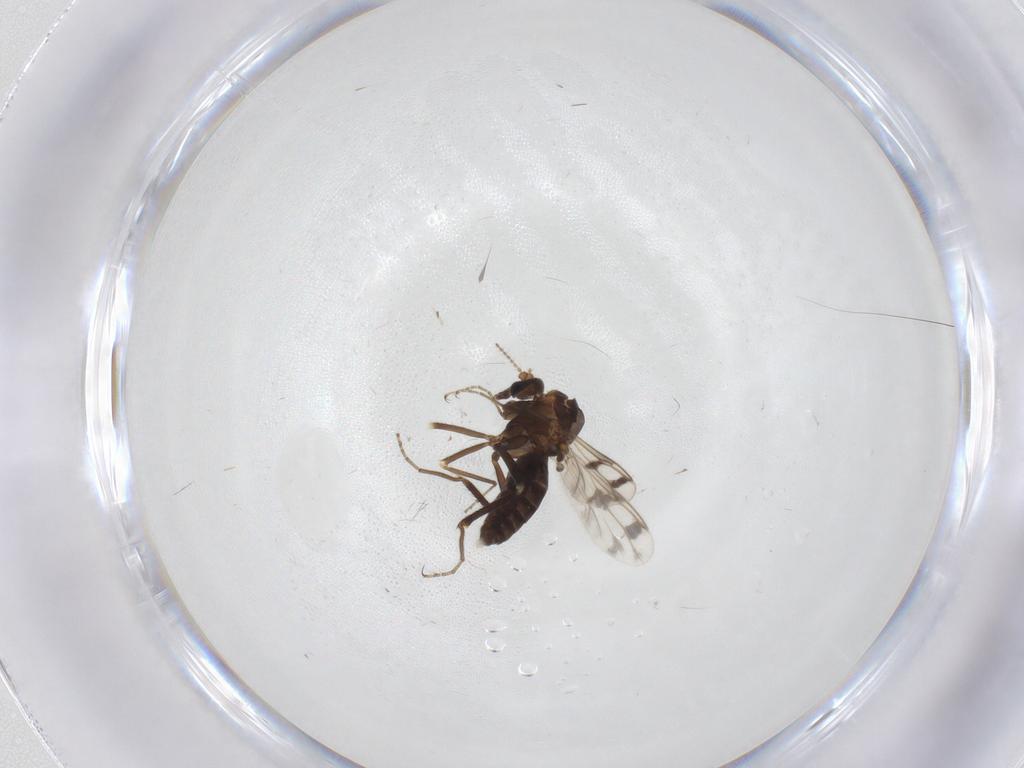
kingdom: Animalia
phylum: Arthropoda
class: Insecta
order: Diptera
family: Ceratopogonidae
